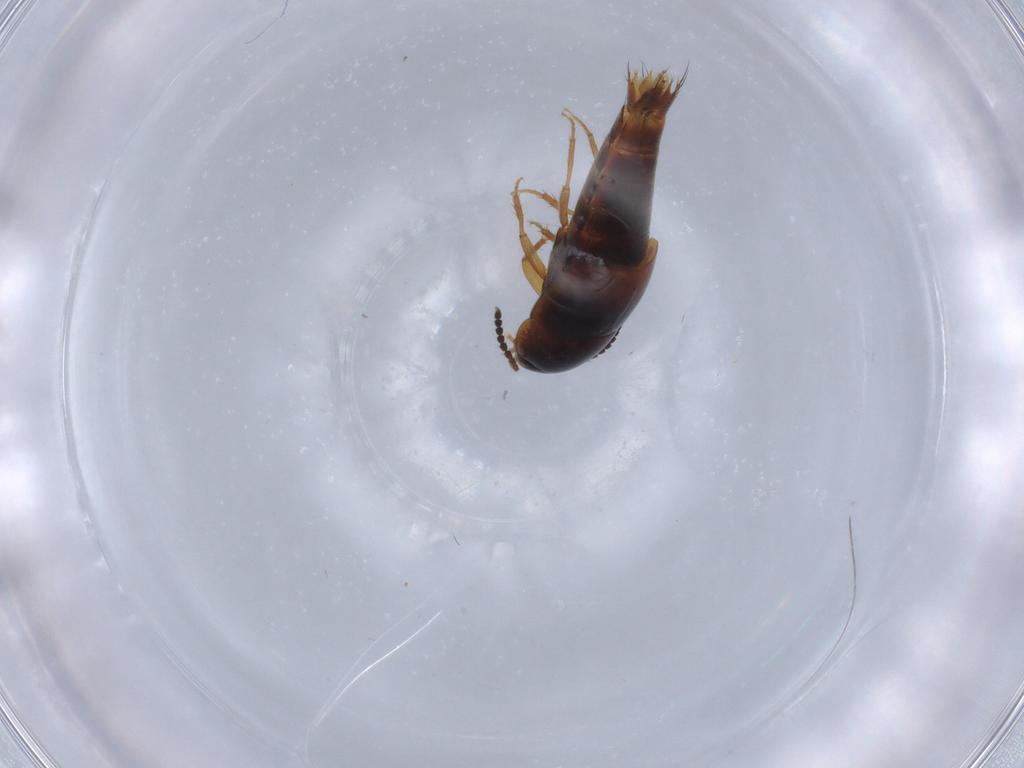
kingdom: Animalia
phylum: Arthropoda
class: Insecta
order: Coleoptera
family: Staphylinidae
